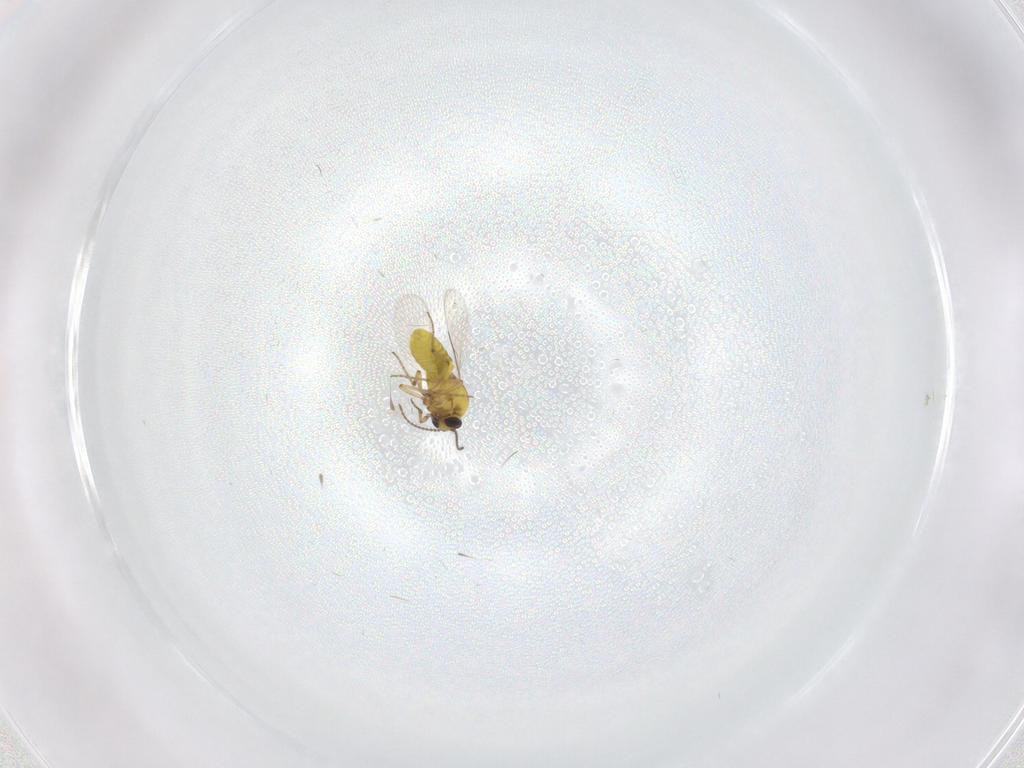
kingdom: Animalia
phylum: Arthropoda
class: Insecta
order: Diptera
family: Ceratopogonidae
